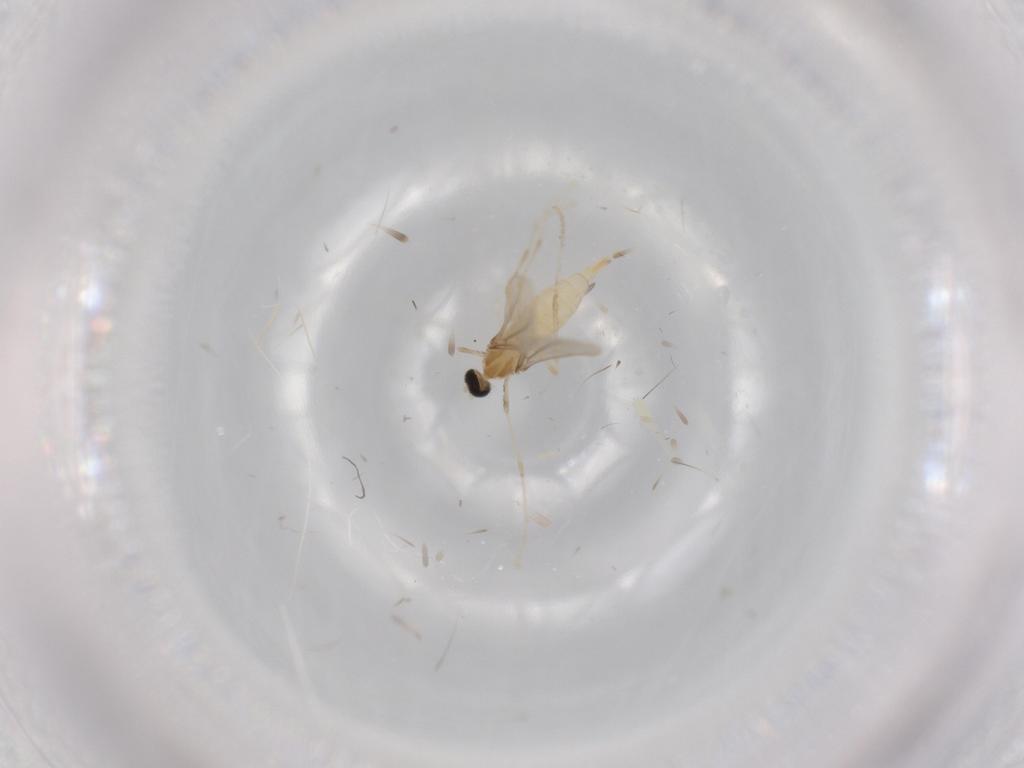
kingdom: Animalia
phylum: Arthropoda
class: Insecta
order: Diptera
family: Cecidomyiidae
